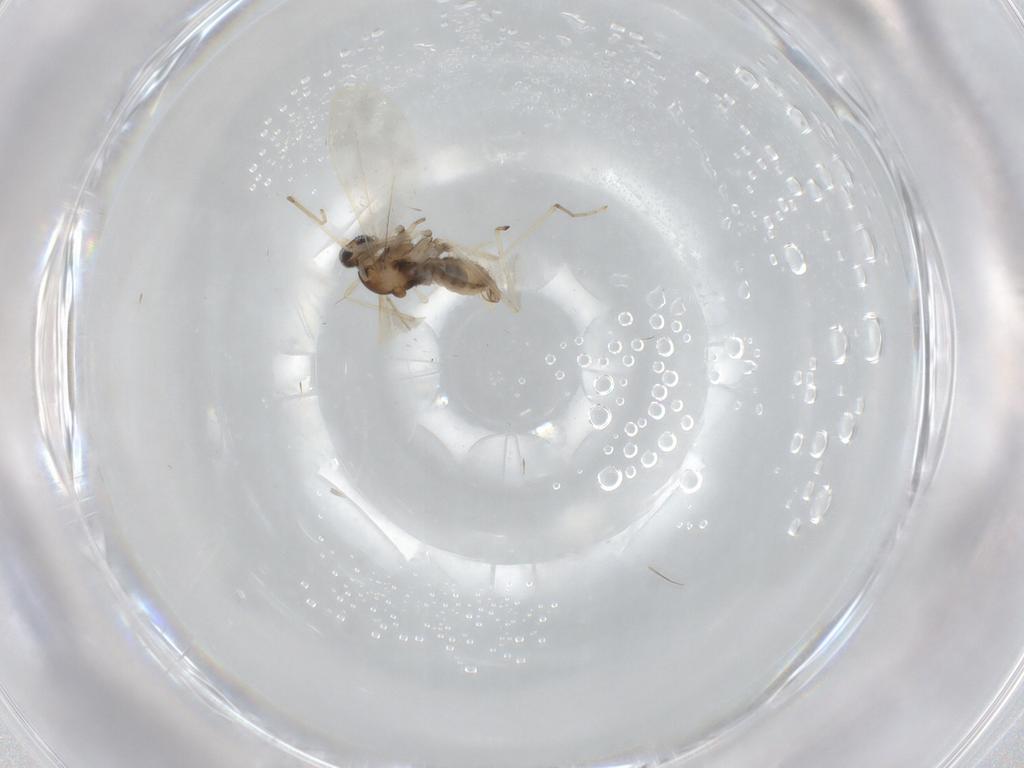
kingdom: Animalia
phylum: Arthropoda
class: Insecta
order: Diptera
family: Cecidomyiidae
